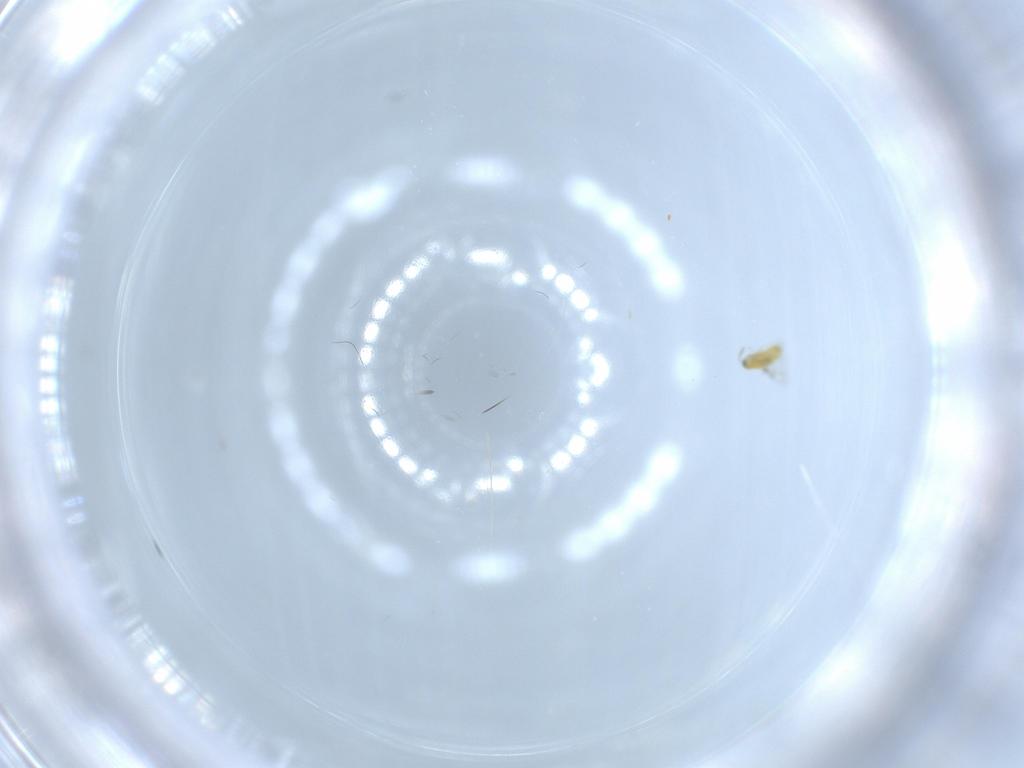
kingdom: Animalia
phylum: Arthropoda
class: Insecta
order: Hymenoptera
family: Trichogrammatidae
